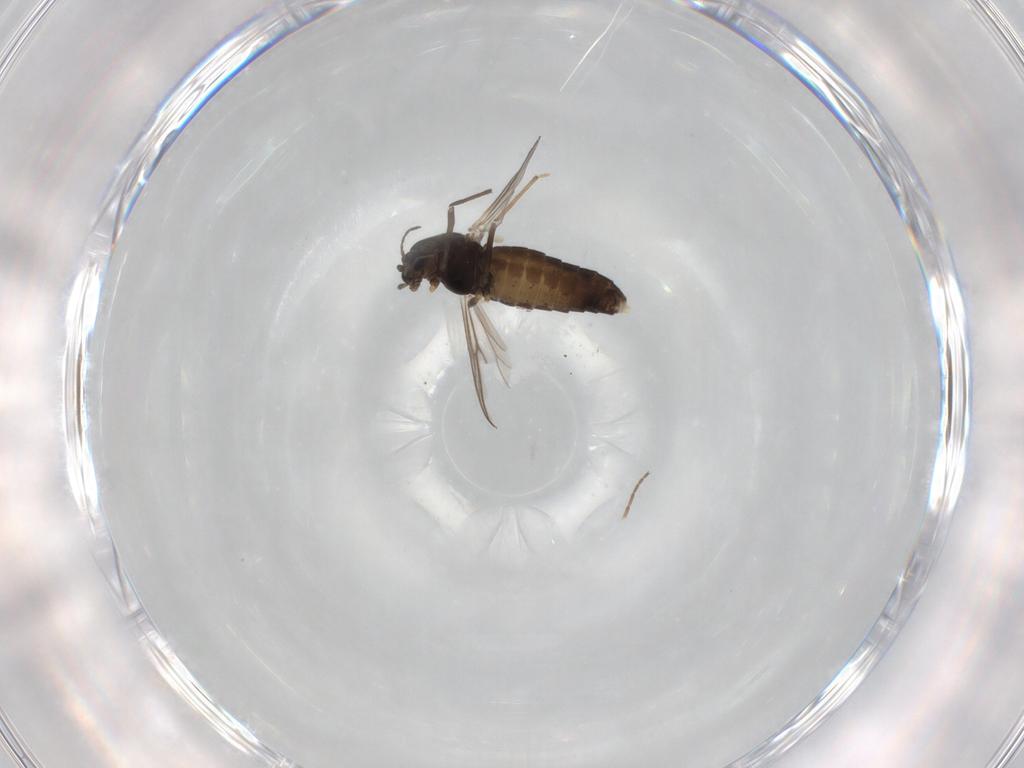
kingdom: Animalia
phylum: Arthropoda
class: Insecta
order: Diptera
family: Chironomidae
